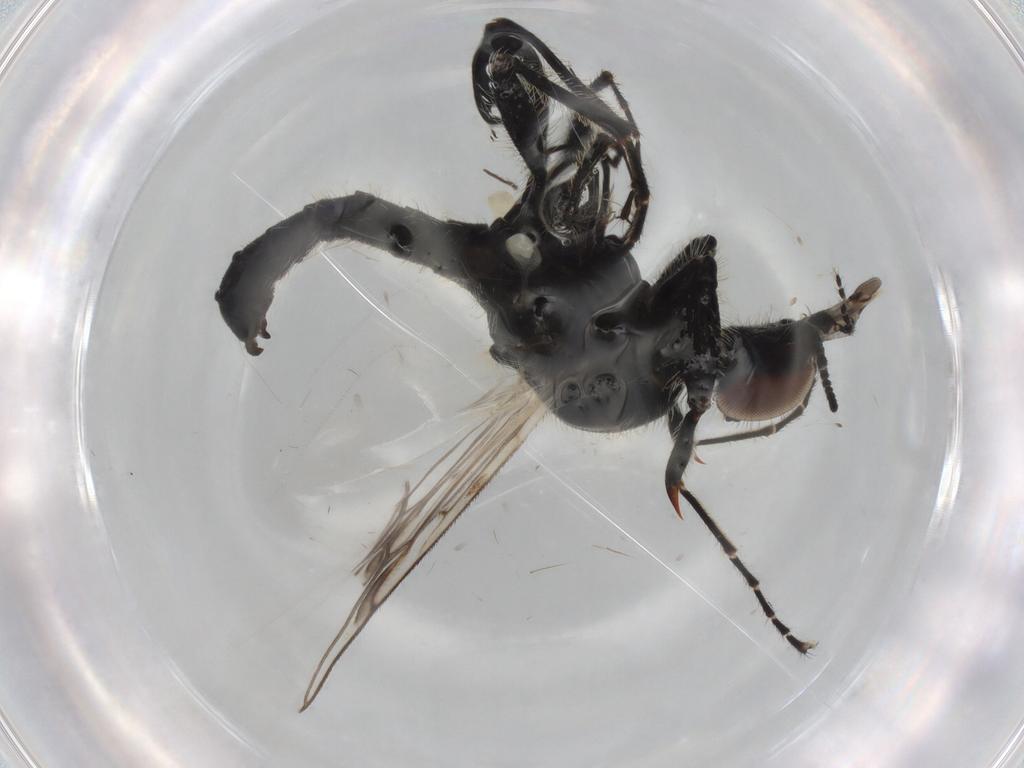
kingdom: Animalia
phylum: Arthropoda
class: Insecta
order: Diptera
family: Bibionidae
